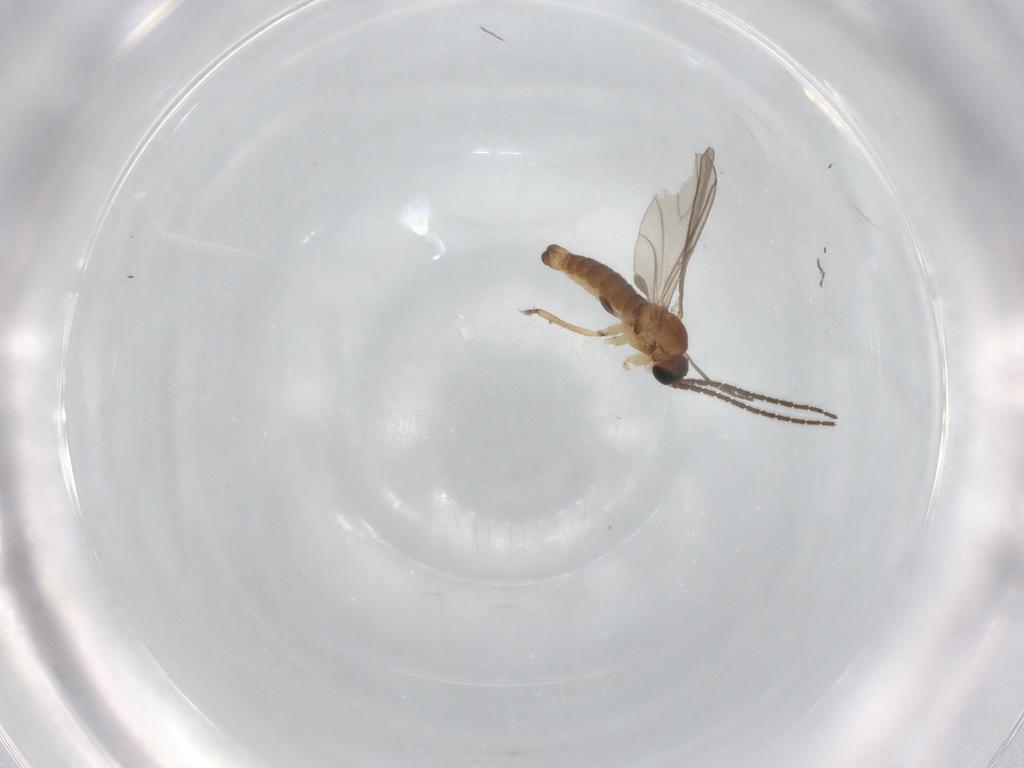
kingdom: Animalia
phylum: Arthropoda
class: Insecta
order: Diptera
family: Sciaridae
